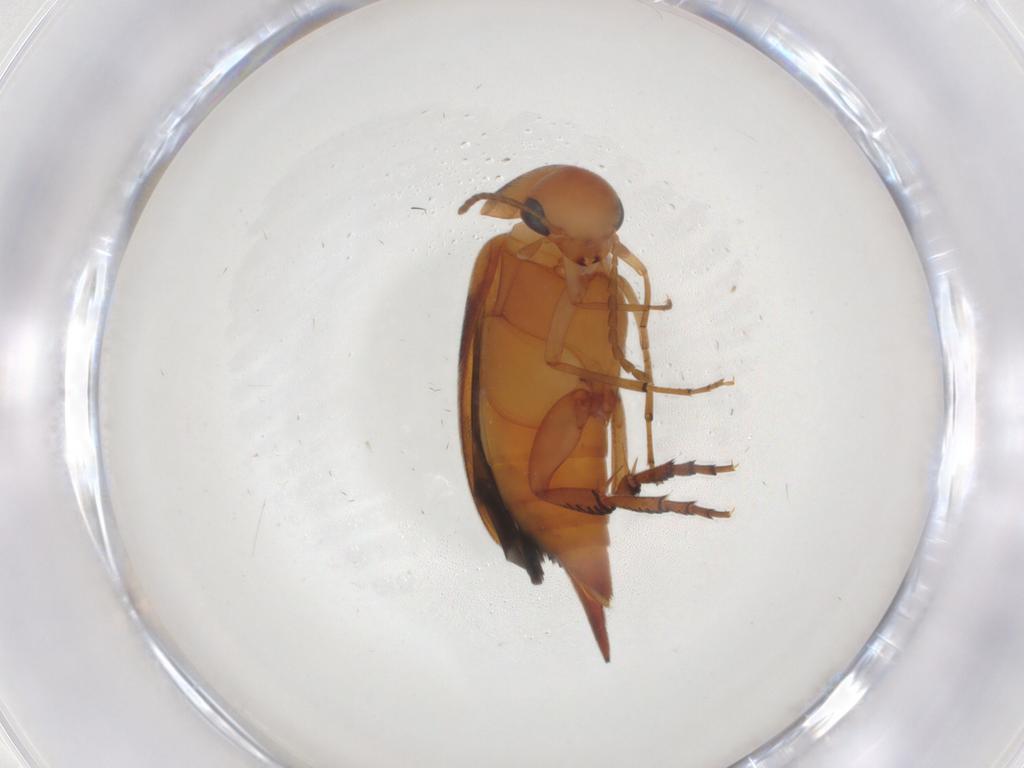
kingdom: Animalia
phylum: Arthropoda
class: Insecta
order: Coleoptera
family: Mordellidae
